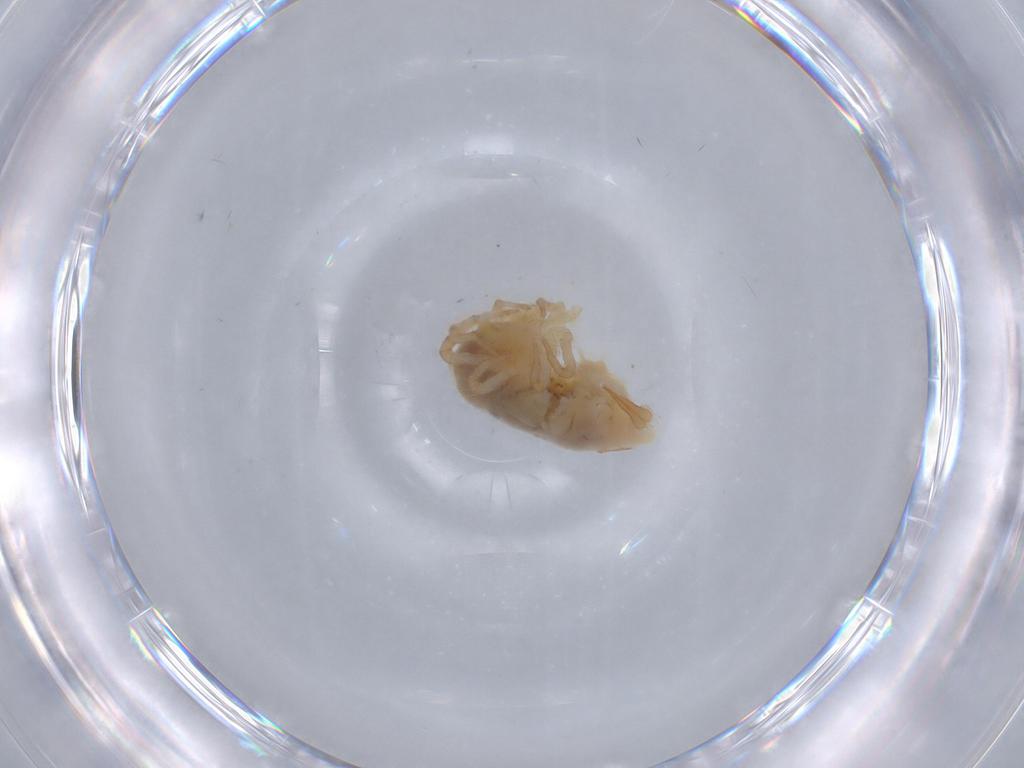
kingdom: Animalia
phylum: Arthropoda
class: Arachnida
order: Trombidiformes
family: Bdellidae
